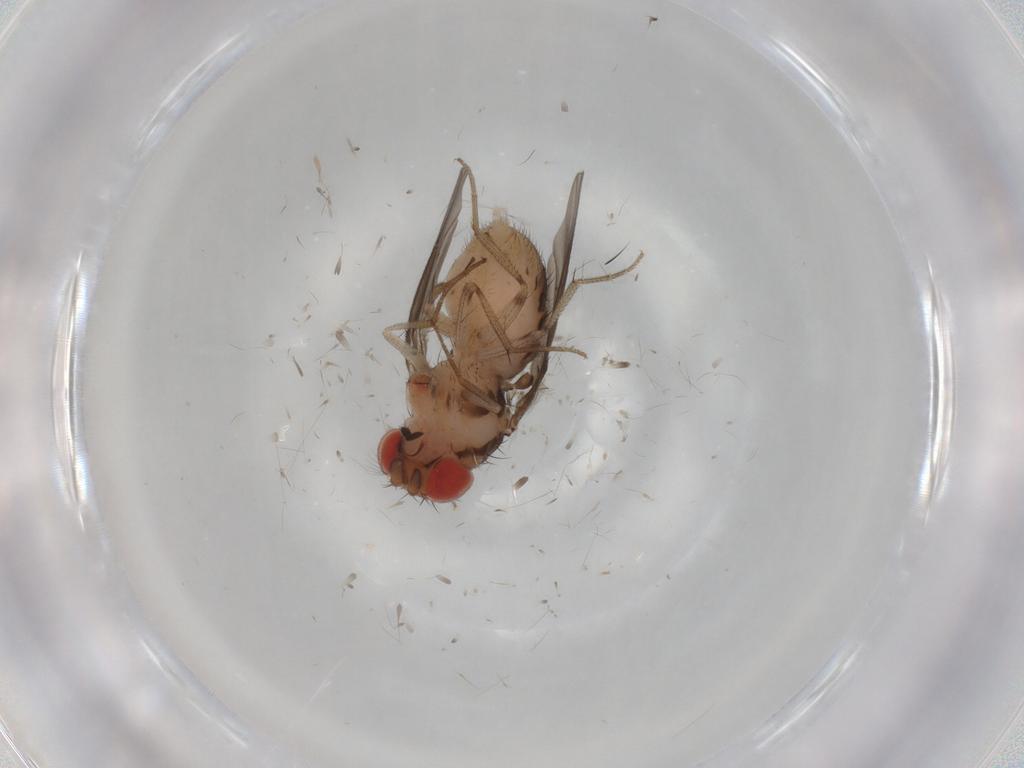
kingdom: Animalia
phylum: Arthropoda
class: Insecta
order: Diptera
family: Drosophilidae
